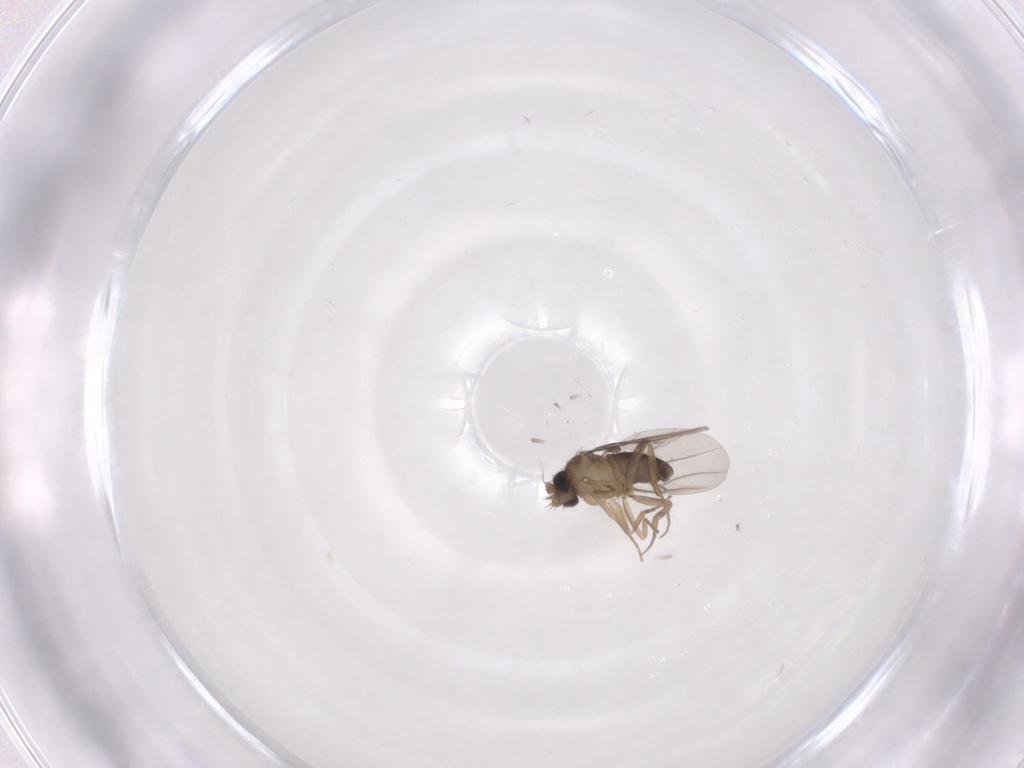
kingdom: Animalia
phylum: Arthropoda
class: Insecta
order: Diptera
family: Phoridae
